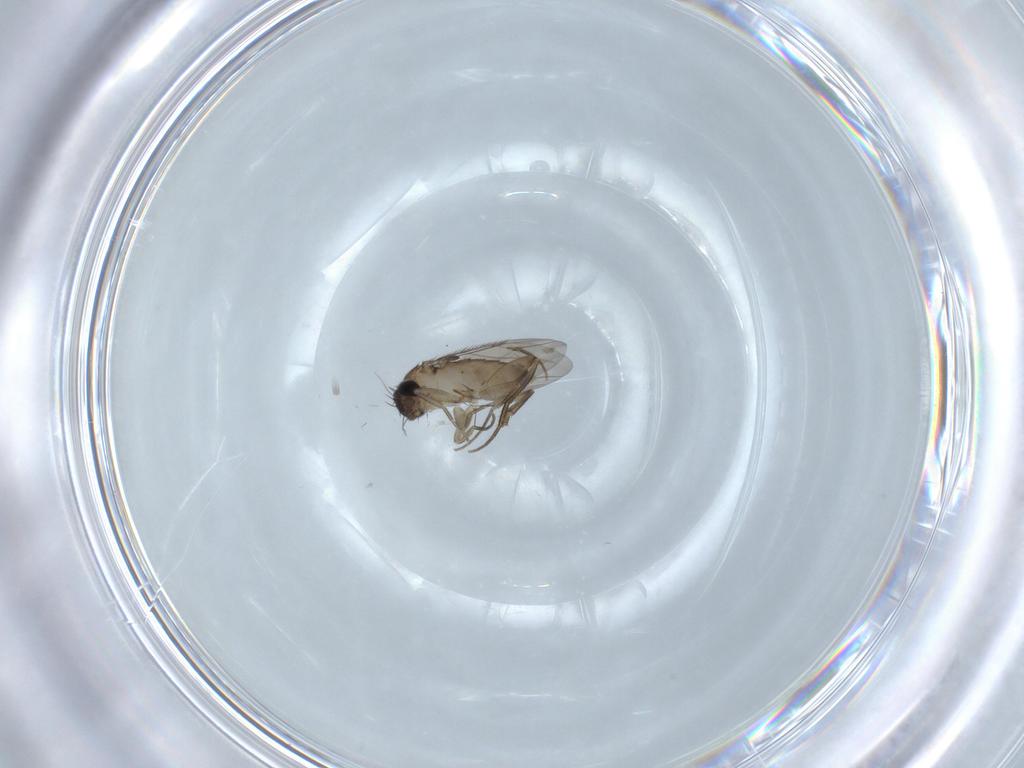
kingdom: Animalia
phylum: Arthropoda
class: Insecta
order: Diptera
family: Phoridae
